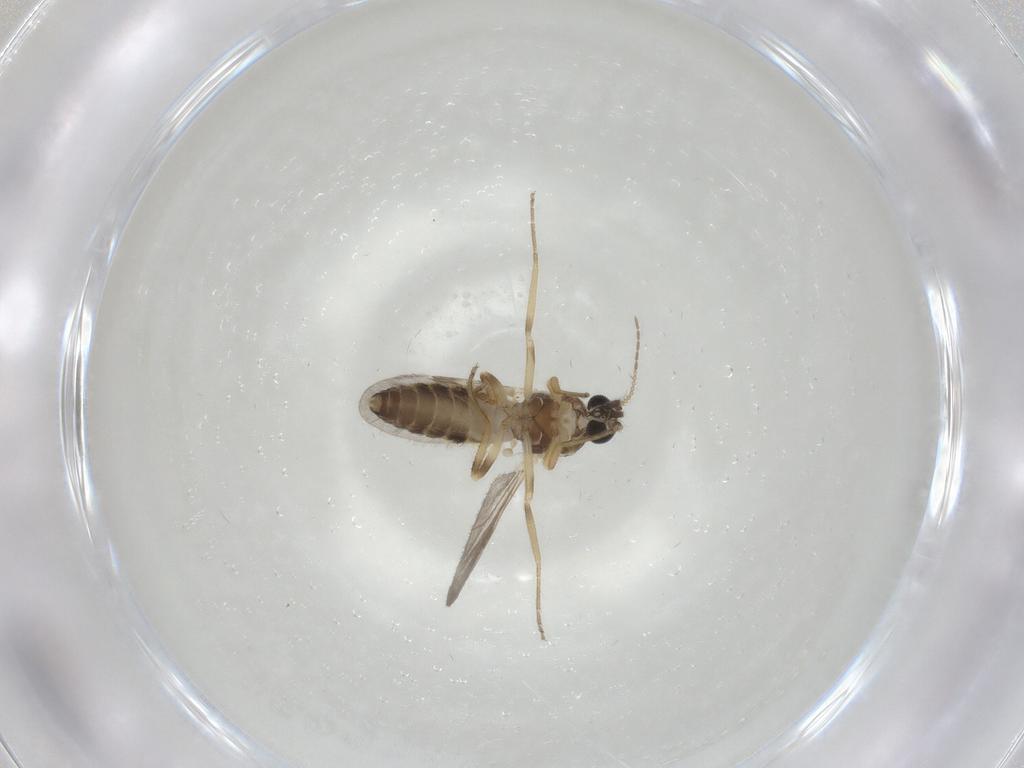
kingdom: Animalia
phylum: Arthropoda
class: Insecta
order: Diptera
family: Ceratopogonidae
